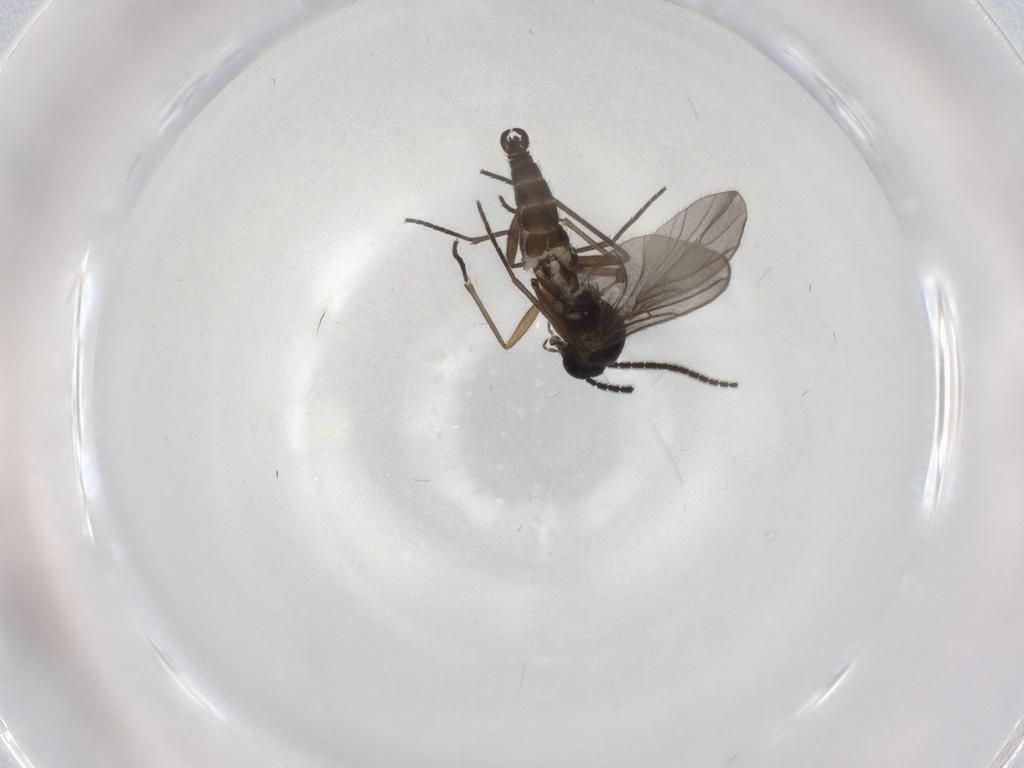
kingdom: Animalia
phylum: Arthropoda
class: Insecta
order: Diptera
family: Sciaridae
